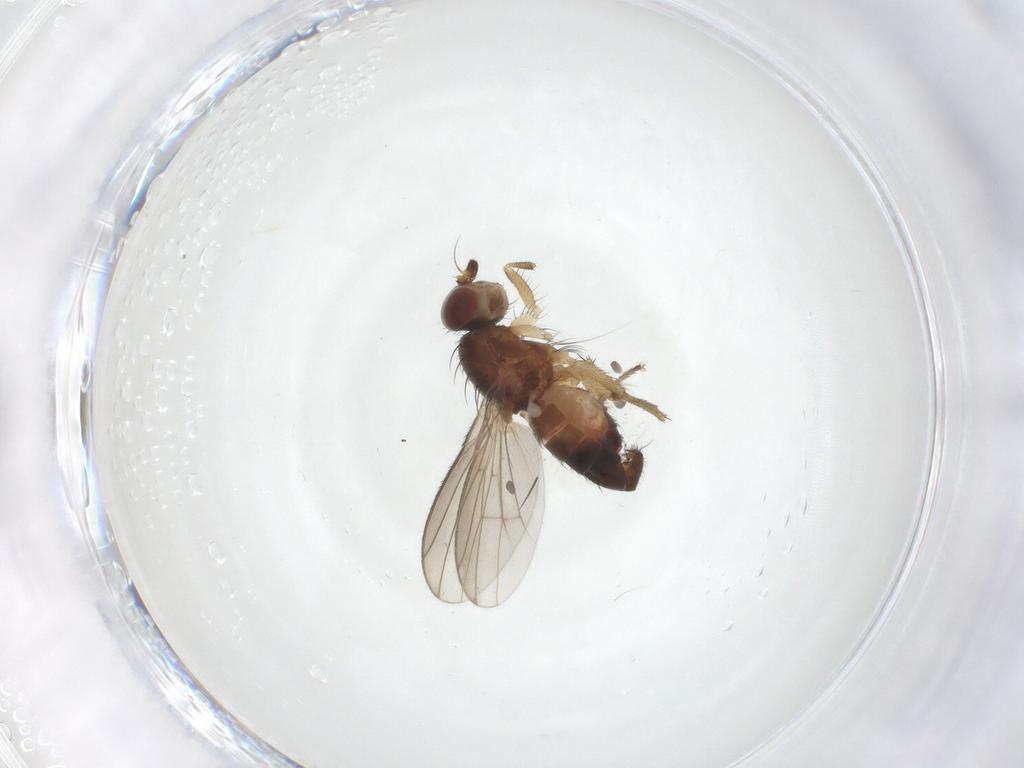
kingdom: Animalia
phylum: Arthropoda
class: Insecta
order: Diptera
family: Heleomyzidae
